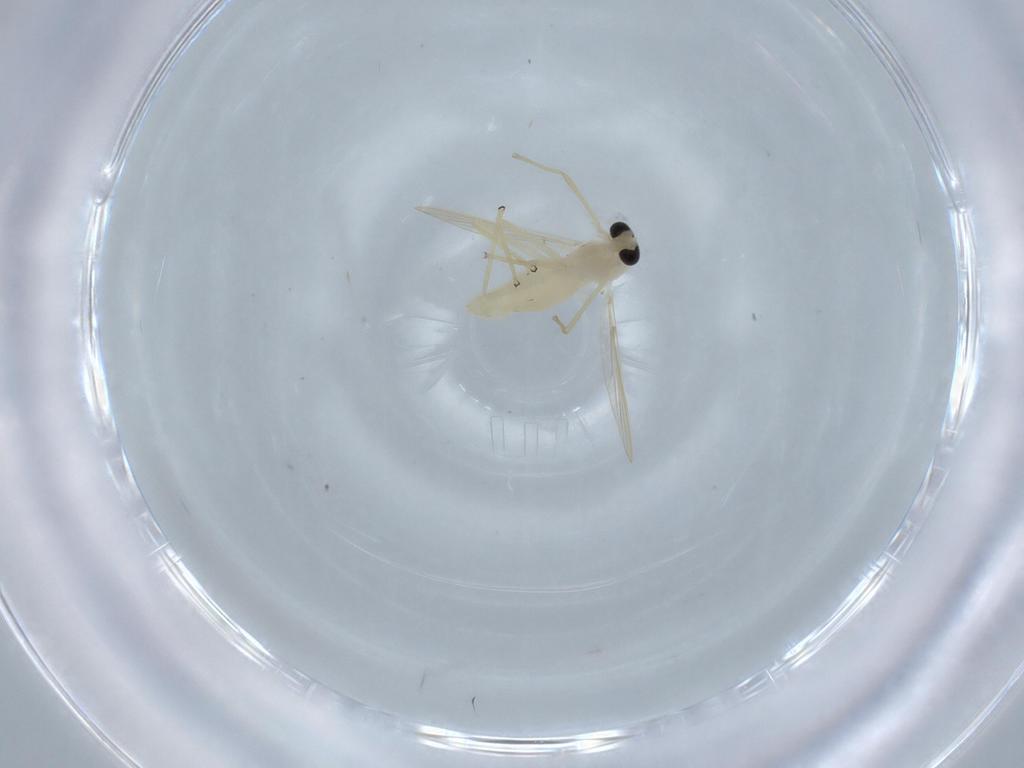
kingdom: Animalia
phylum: Arthropoda
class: Insecta
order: Diptera
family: Chironomidae
